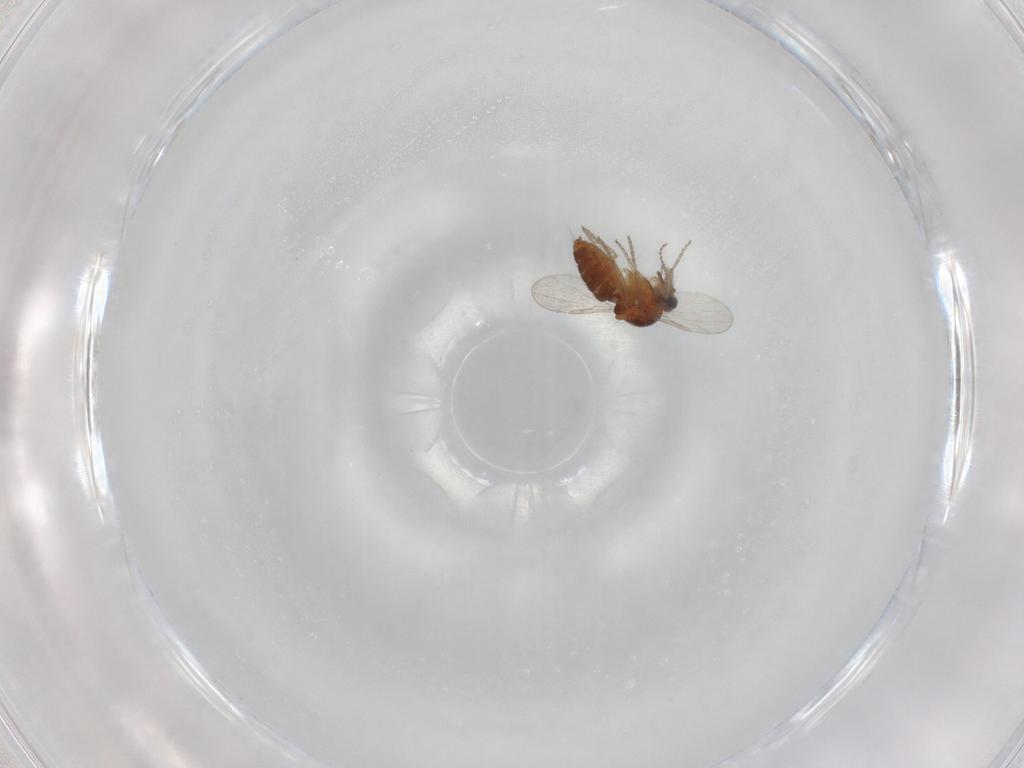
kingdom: Animalia
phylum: Arthropoda
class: Insecta
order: Diptera
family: Ceratopogonidae
